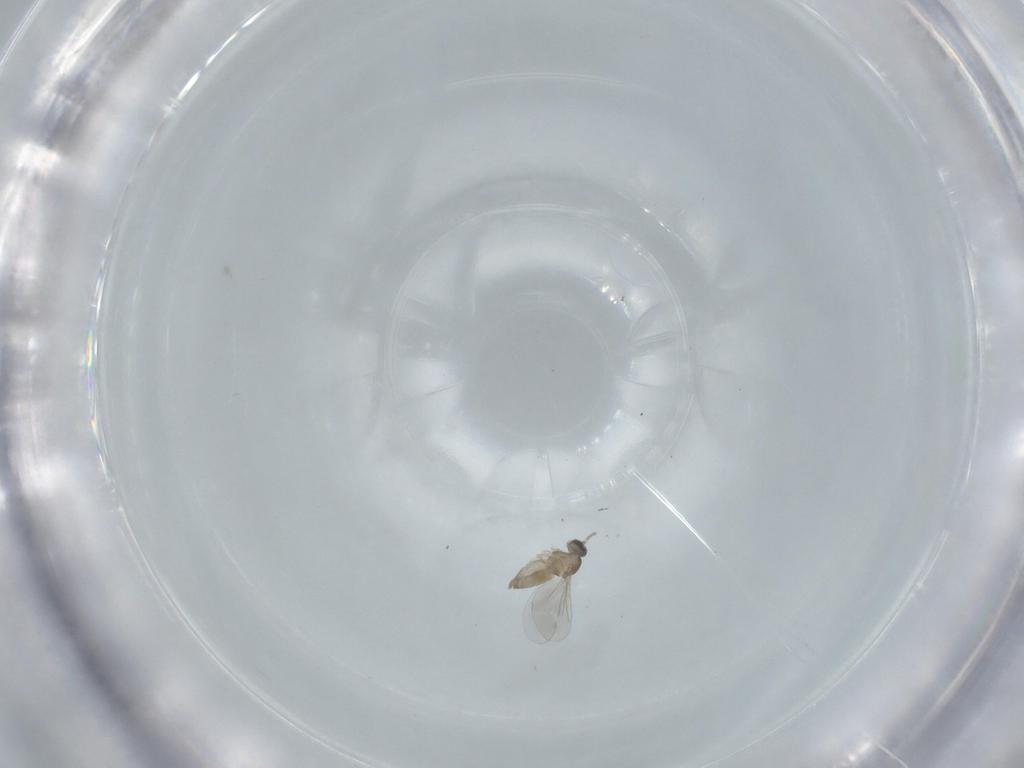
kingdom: Animalia
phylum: Arthropoda
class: Insecta
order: Diptera
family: Cecidomyiidae
